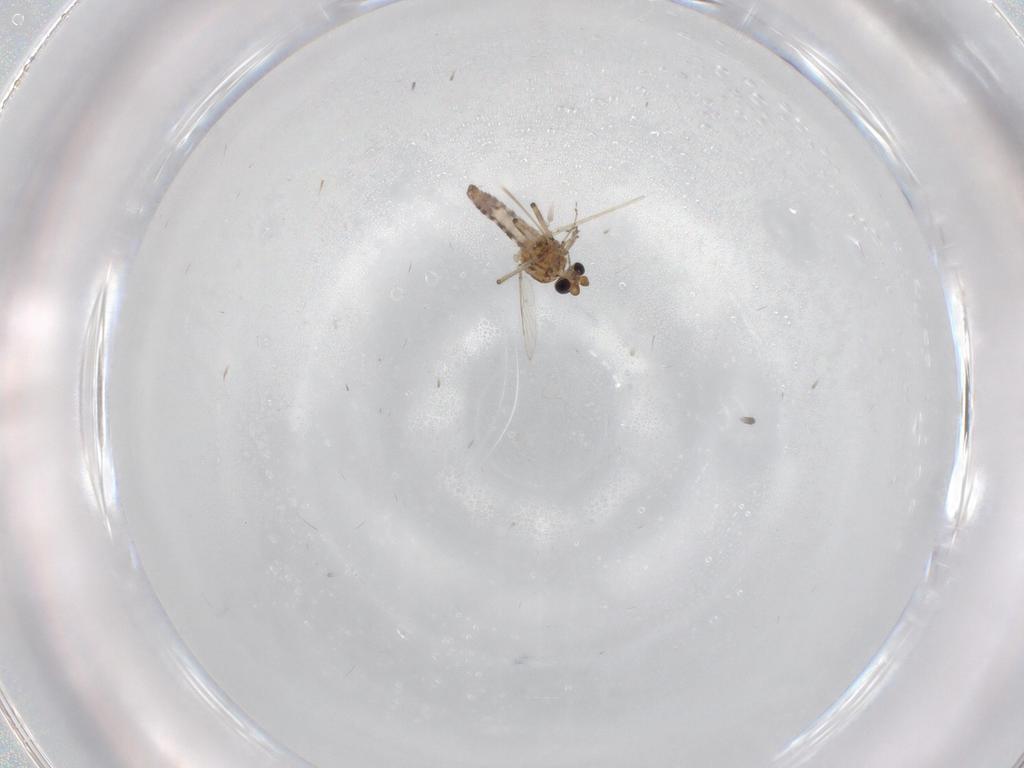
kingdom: Animalia
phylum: Arthropoda
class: Insecta
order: Diptera
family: Ceratopogonidae
